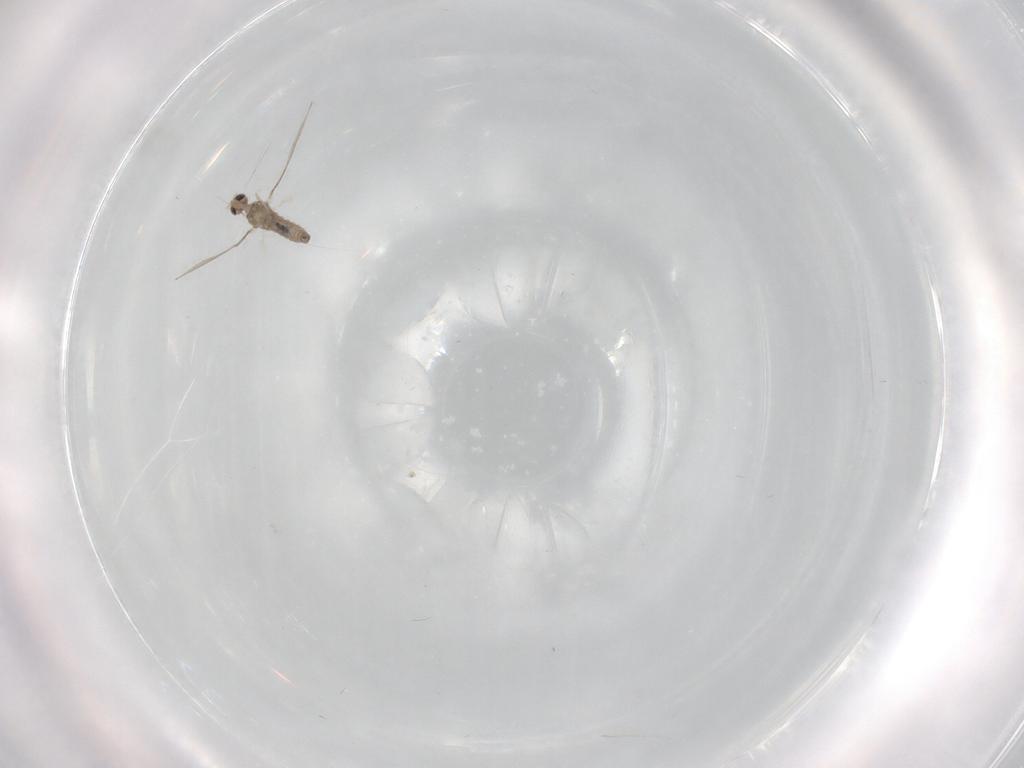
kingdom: Animalia
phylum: Arthropoda
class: Insecta
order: Diptera
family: Cecidomyiidae
